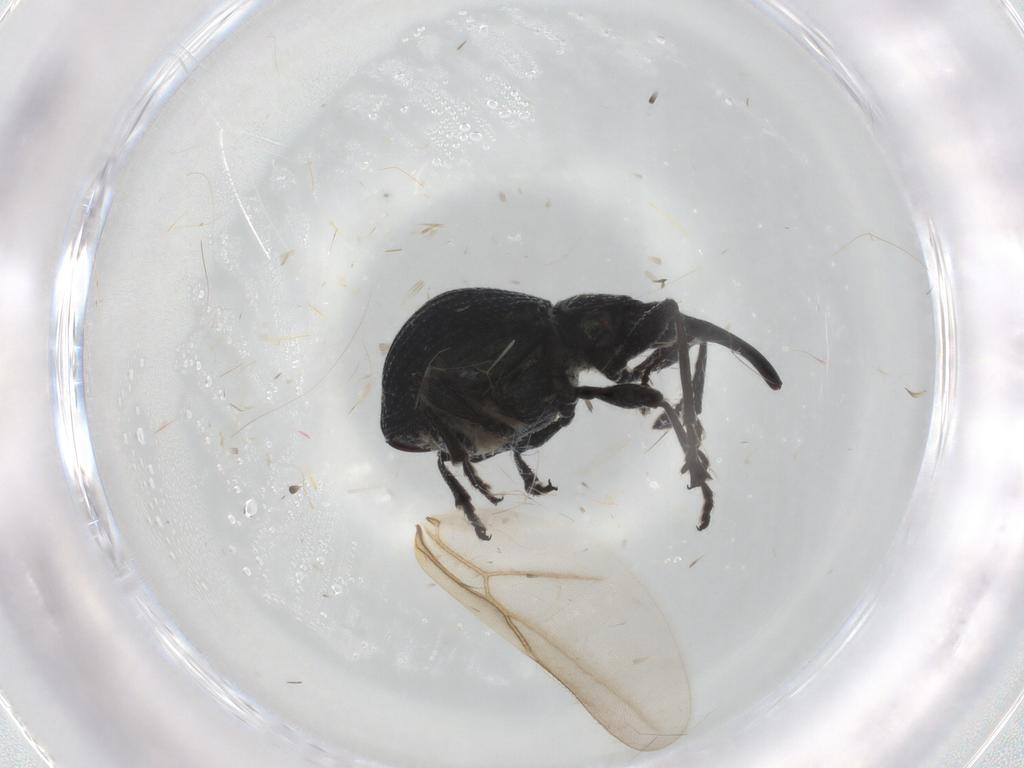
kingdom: Animalia
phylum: Arthropoda
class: Insecta
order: Coleoptera
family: Brentidae
